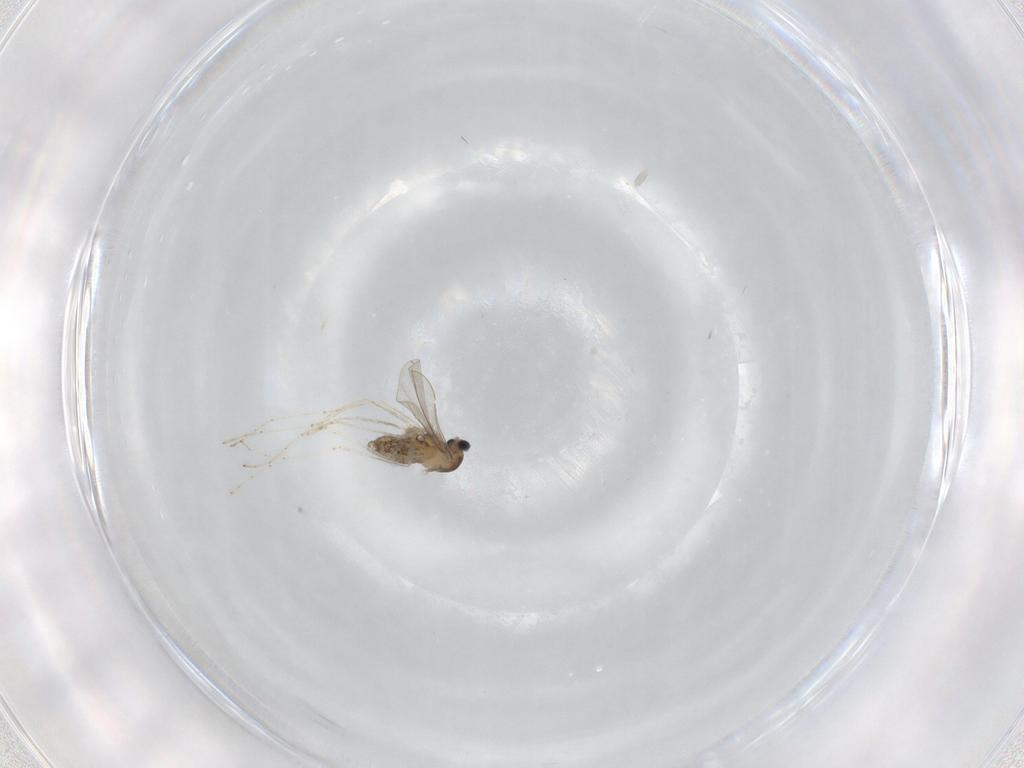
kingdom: Animalia
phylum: Arthropoda
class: Insecta
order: Diptera
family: Cecidomyiidae
